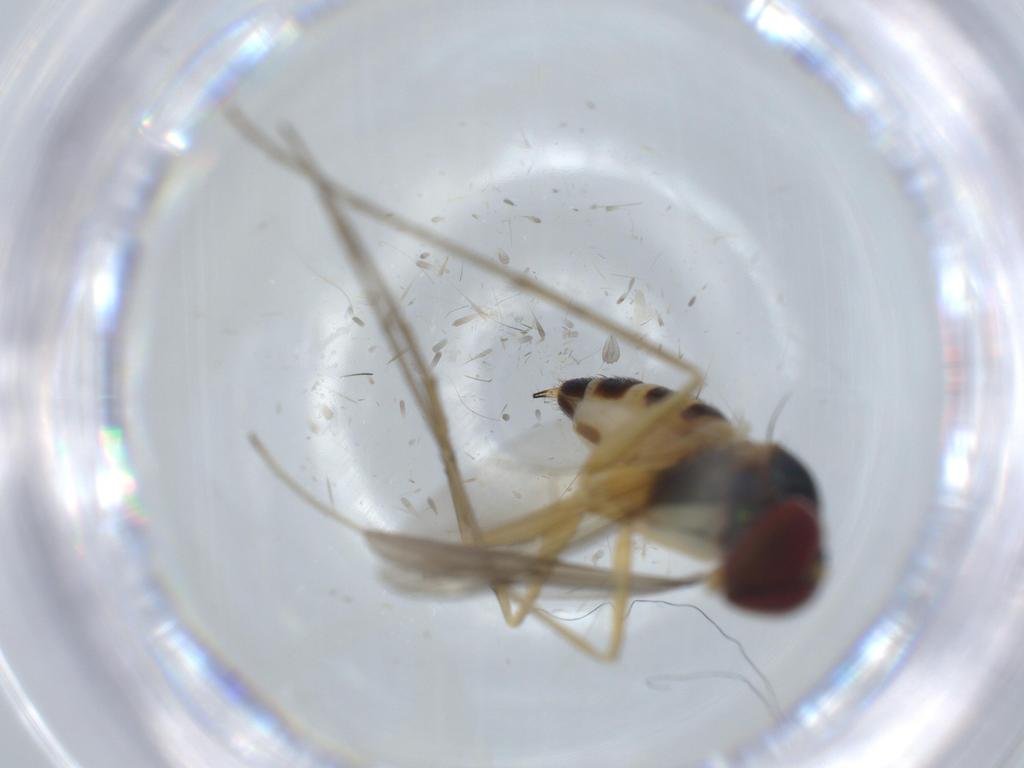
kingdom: Animalia
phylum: Arthropoda
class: Insecta
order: Diptera
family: Dolichopodidae
